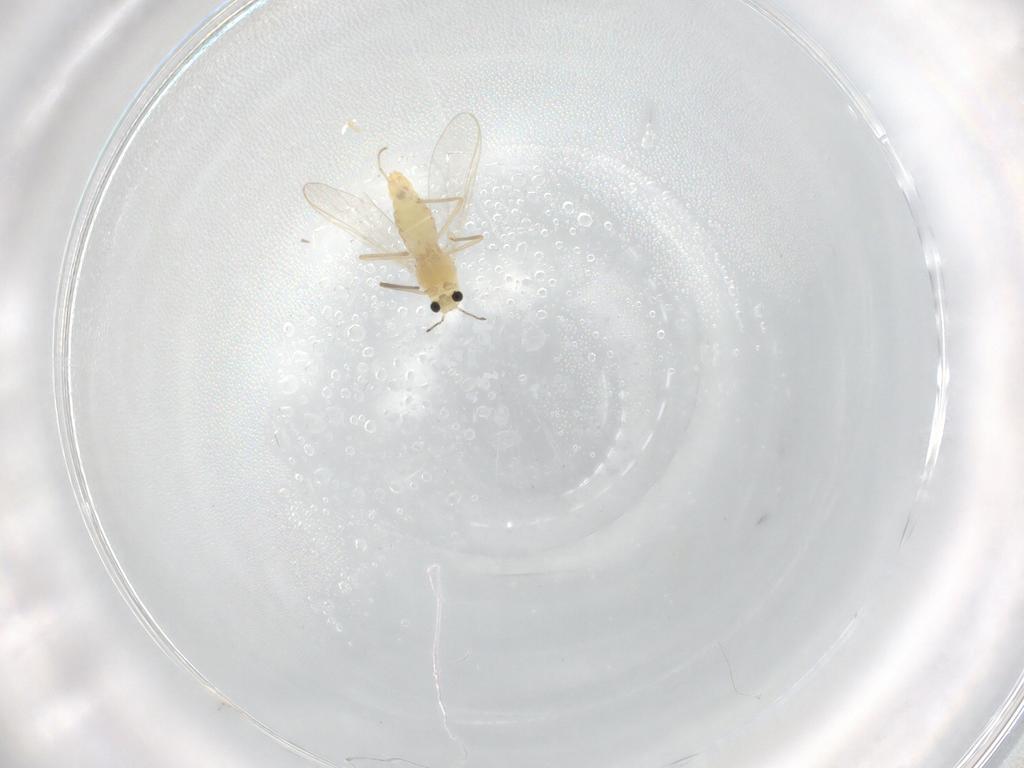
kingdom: Animalia
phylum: Arthropoda
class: Insecta
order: Diptera
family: Chironomidae
